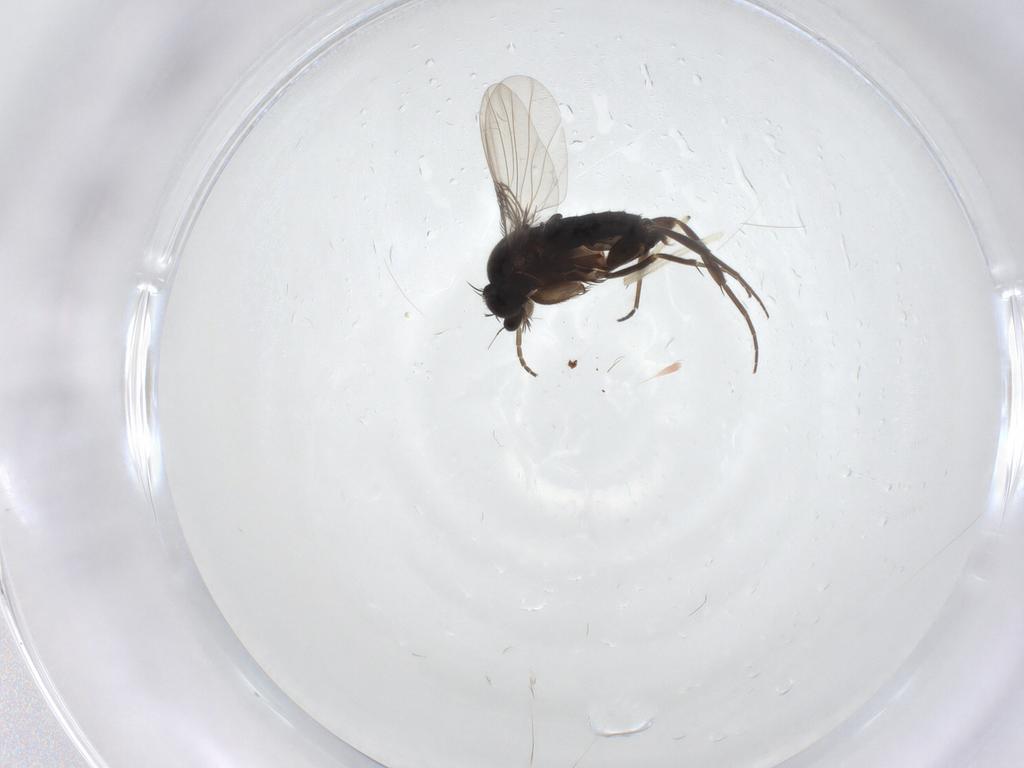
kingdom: Animalia
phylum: Arthropoda
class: Insecta
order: Diptera
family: Chironomidae
